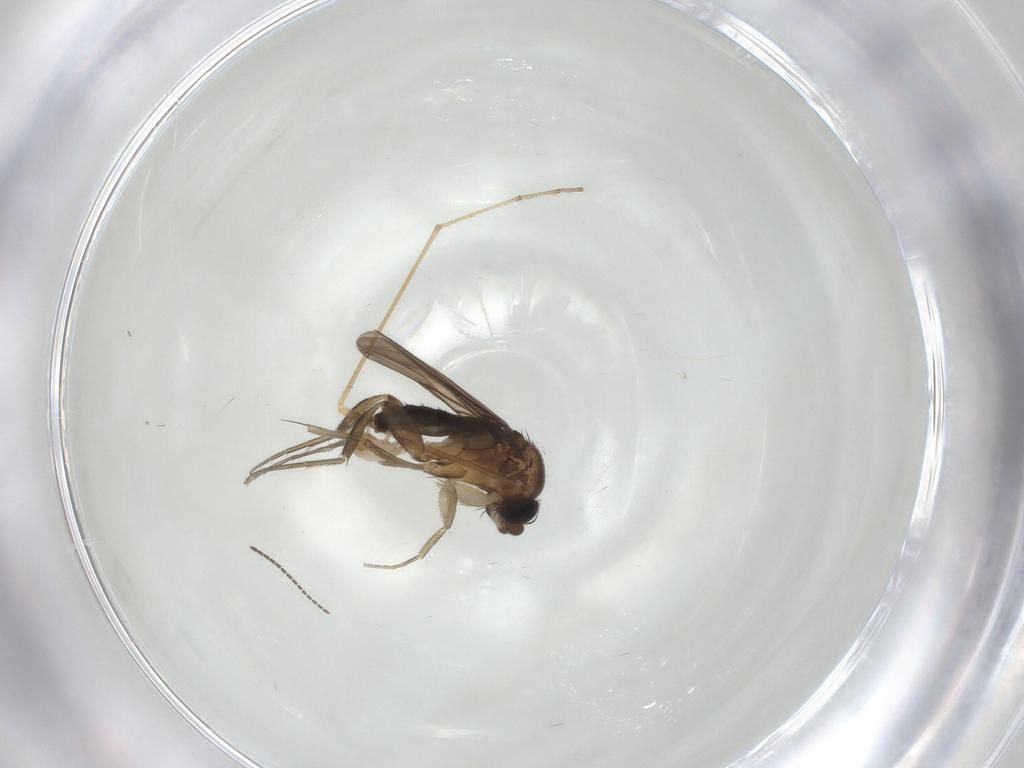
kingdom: Animalia
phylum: Arthropoda
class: Insecta
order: Diptera
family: Limoniidae
